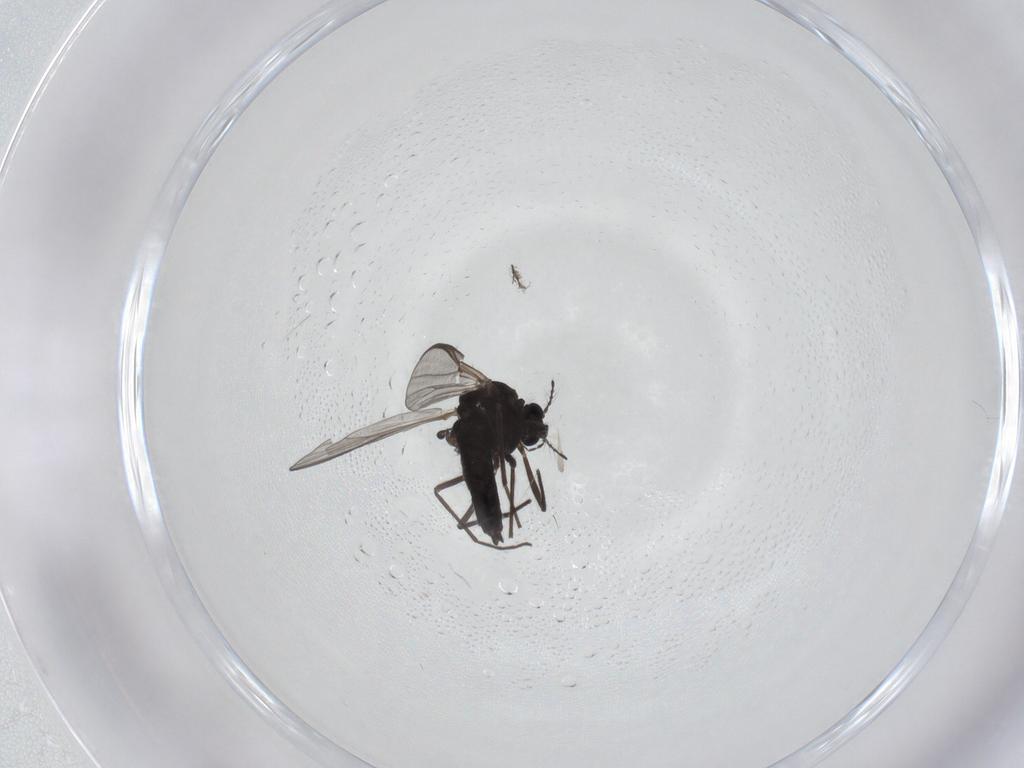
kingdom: Animalia
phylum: Arthropoda
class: Insecta
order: Diptera
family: Chironomidae
